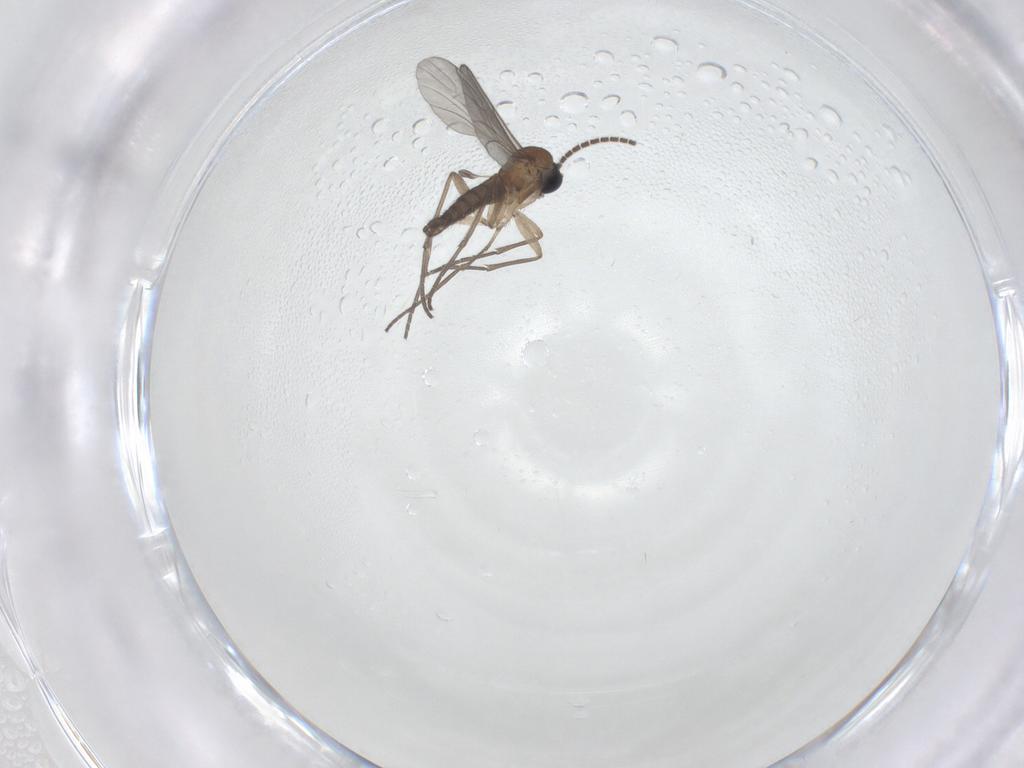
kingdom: Animalia
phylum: Arthropoda
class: Insecta
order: Diptera
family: Sciaridae
